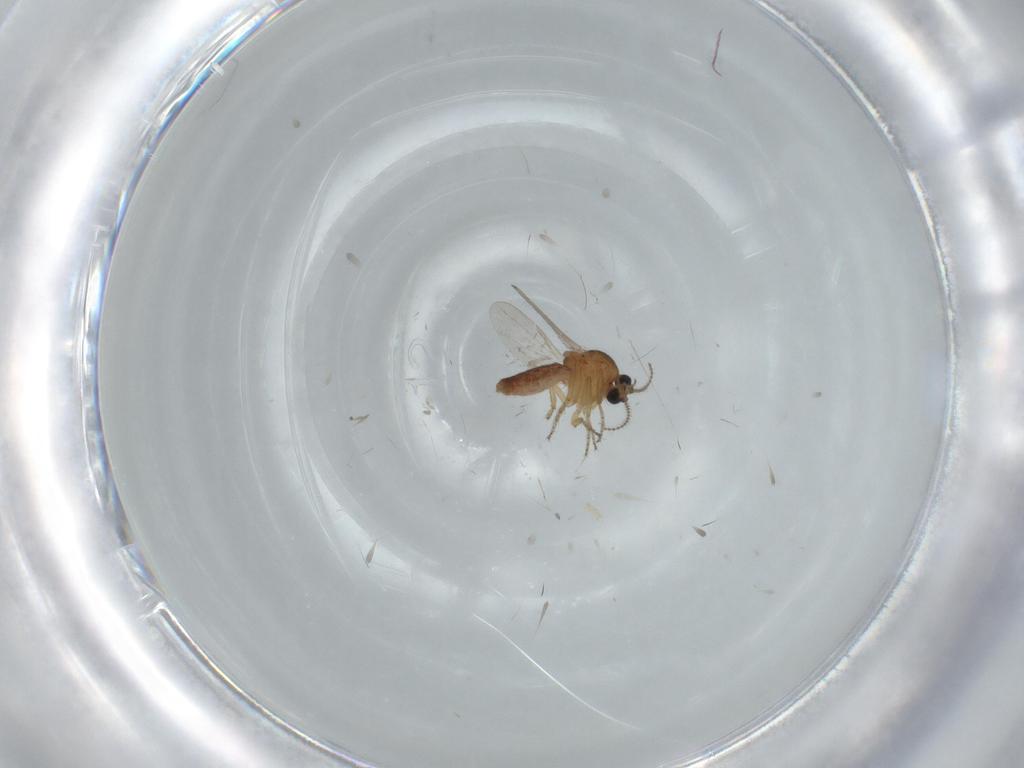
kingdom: Animalia
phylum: Arthropoda
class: Insecta
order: Diptera
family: Ceratopogonidae
